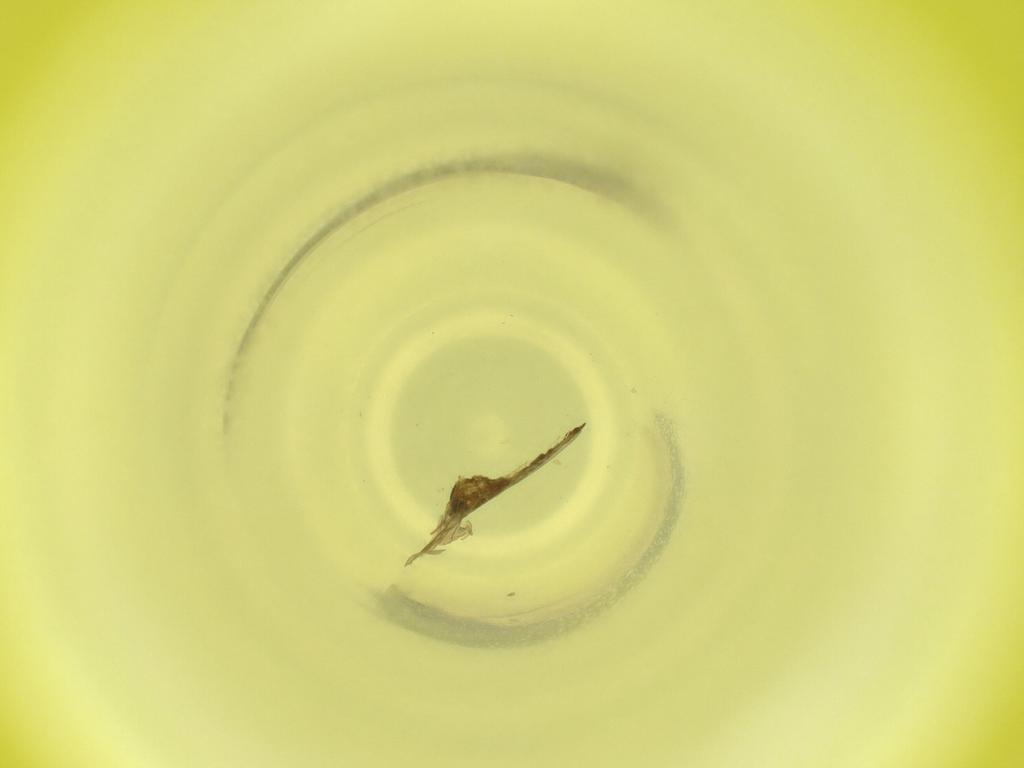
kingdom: Animalia
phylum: Arthropoda
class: Insecta
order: Diptera
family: Cecidomyiidae
